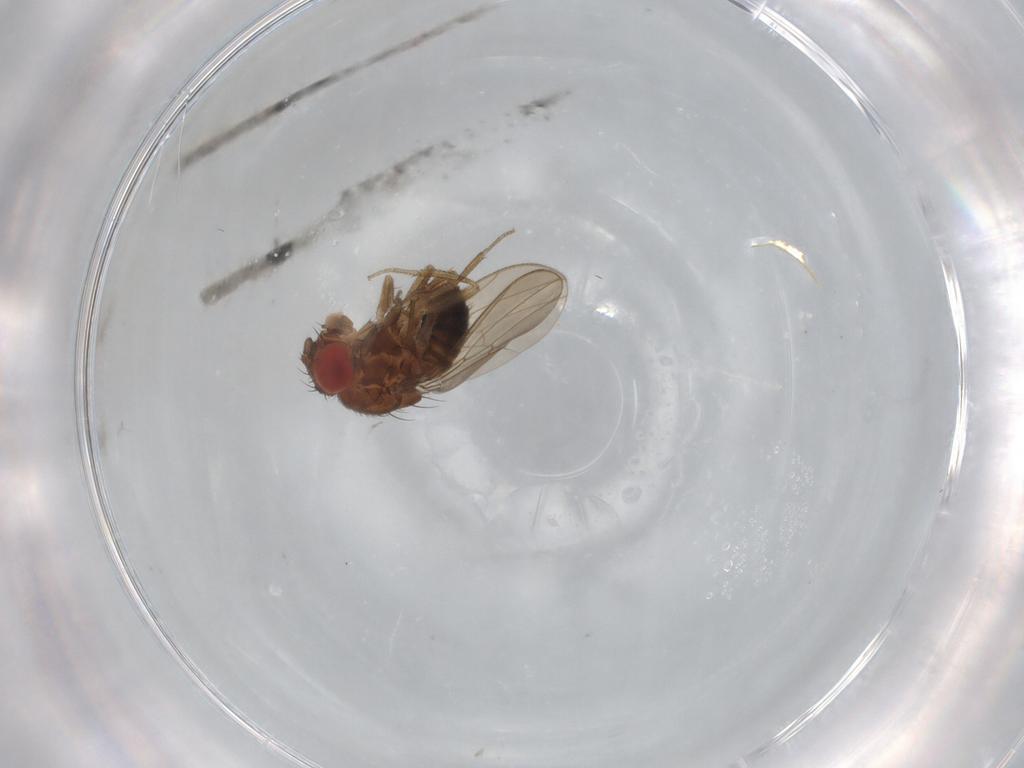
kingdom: Animalia
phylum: Arthropoda
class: Insecta
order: Diptera
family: Drosophilidae
